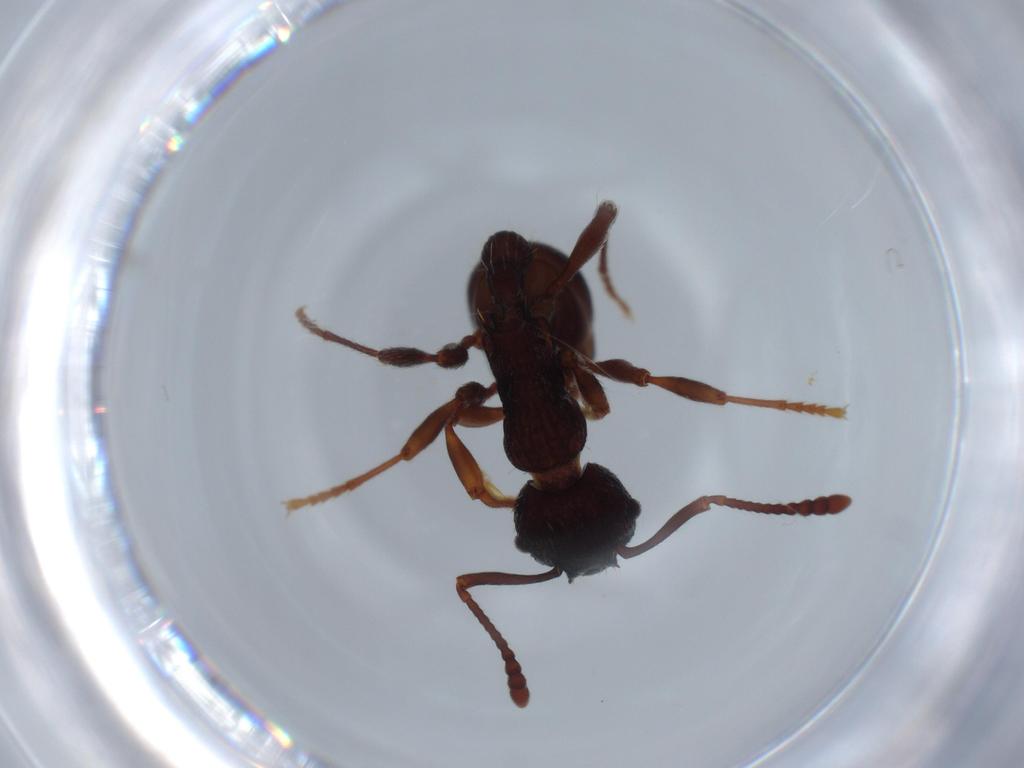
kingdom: Animalia
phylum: Arthropoda
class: Insecta
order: Hymenoptera
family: Formicidae
